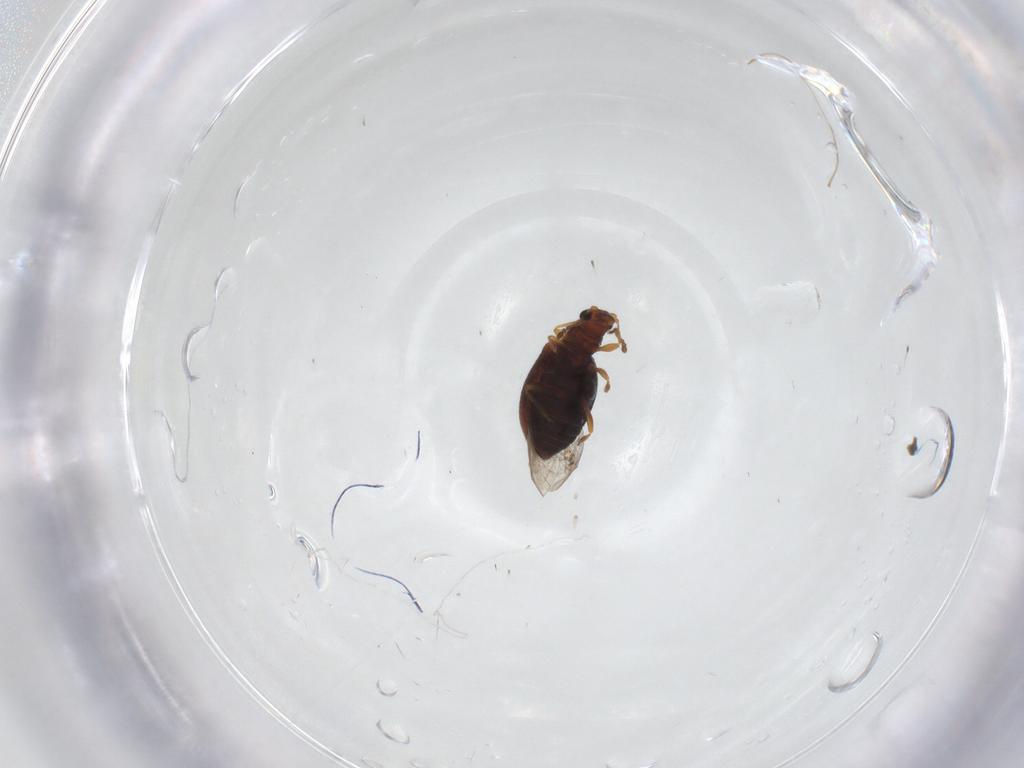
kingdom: Animalia
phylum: Arthropoda
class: Insecta
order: Coleoptera
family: Latridiidae
